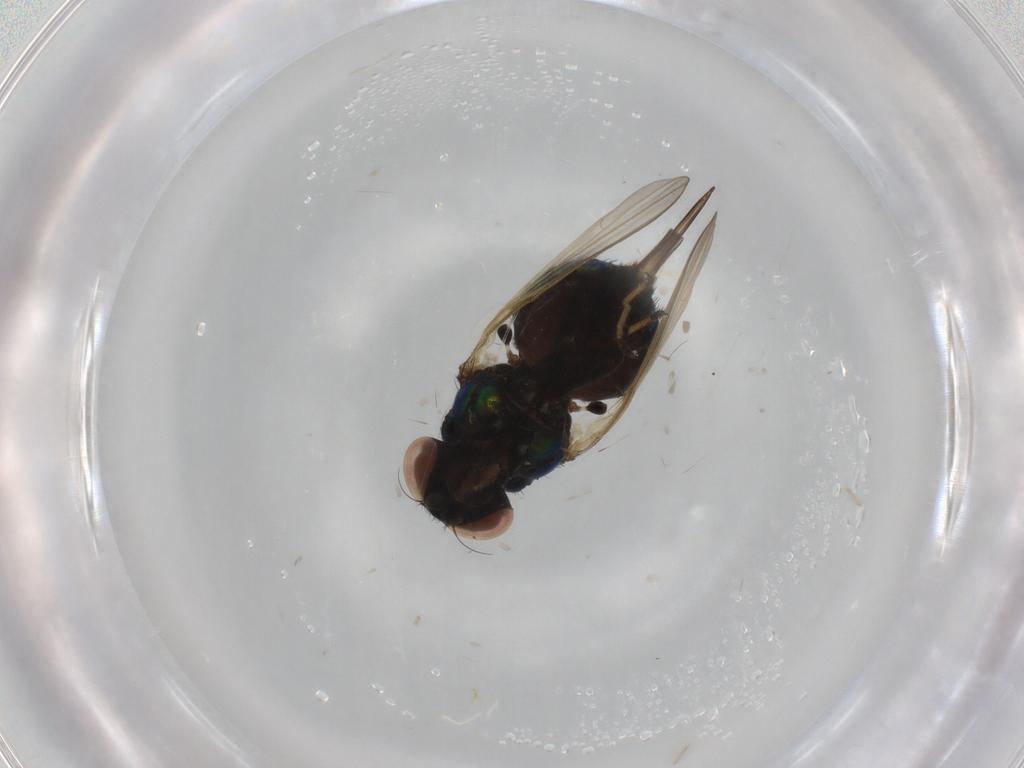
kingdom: Animalia
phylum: Arthropoda
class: Insecta
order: Diptera
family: Lonchaeidae
